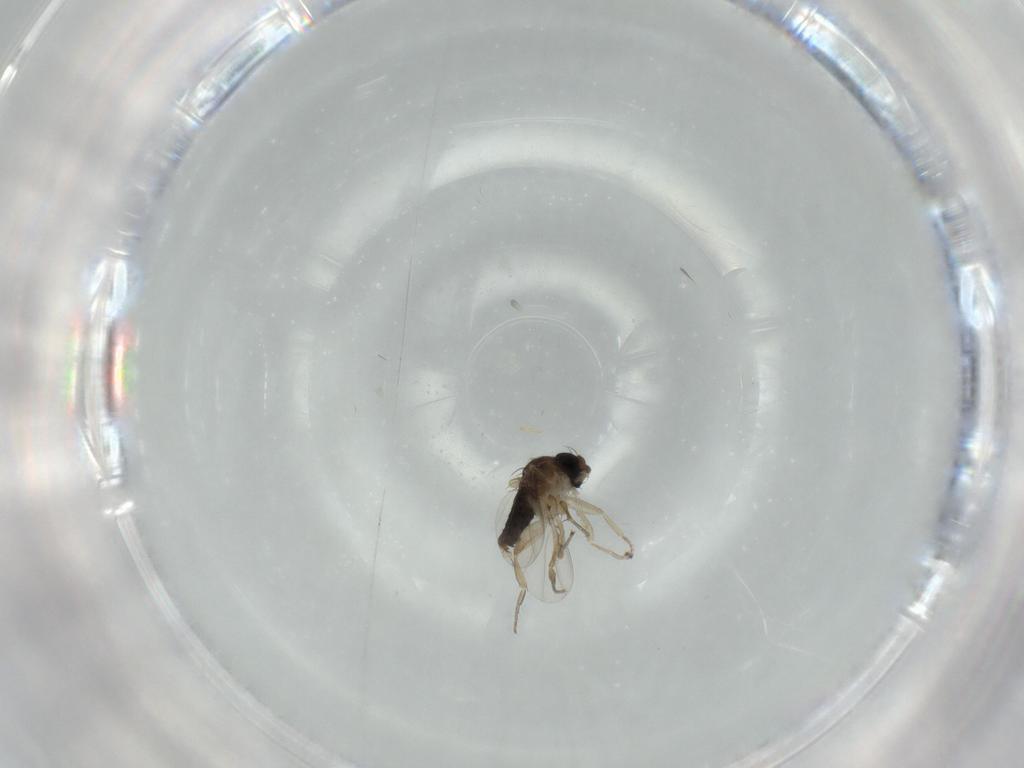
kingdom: Animalia
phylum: Arthropoda
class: Insecta
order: Diptera
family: Phoridae
